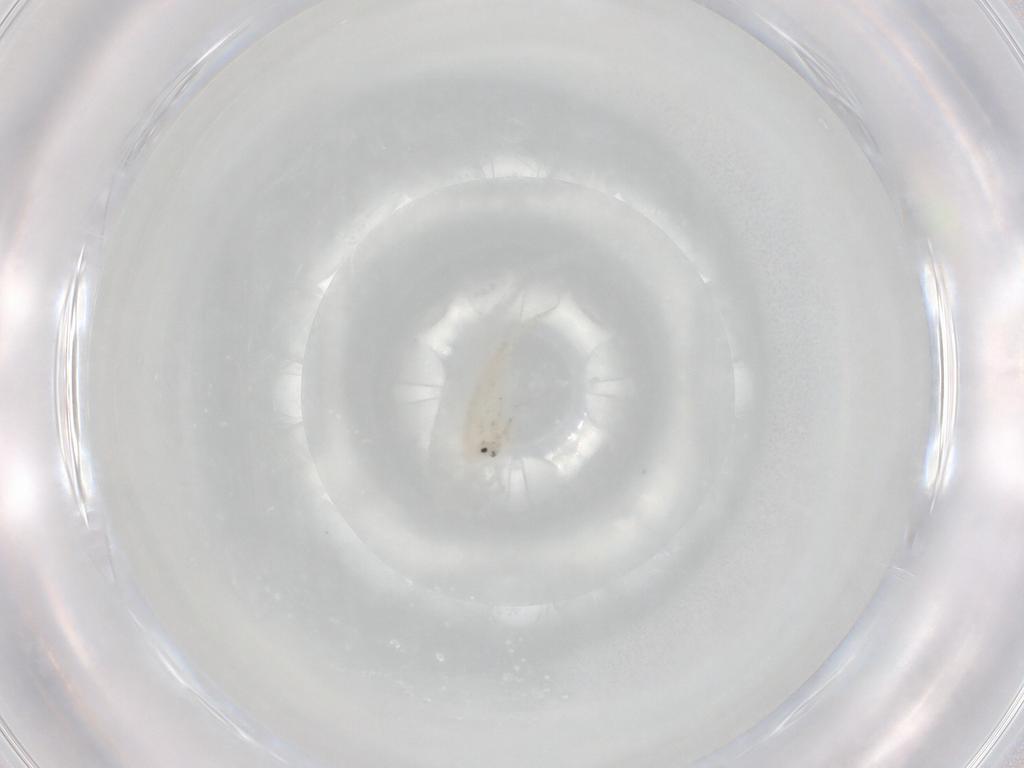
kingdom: Animalia
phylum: Arthropoda
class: Collembola
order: Entomobryomorpha
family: Entomobryidae
